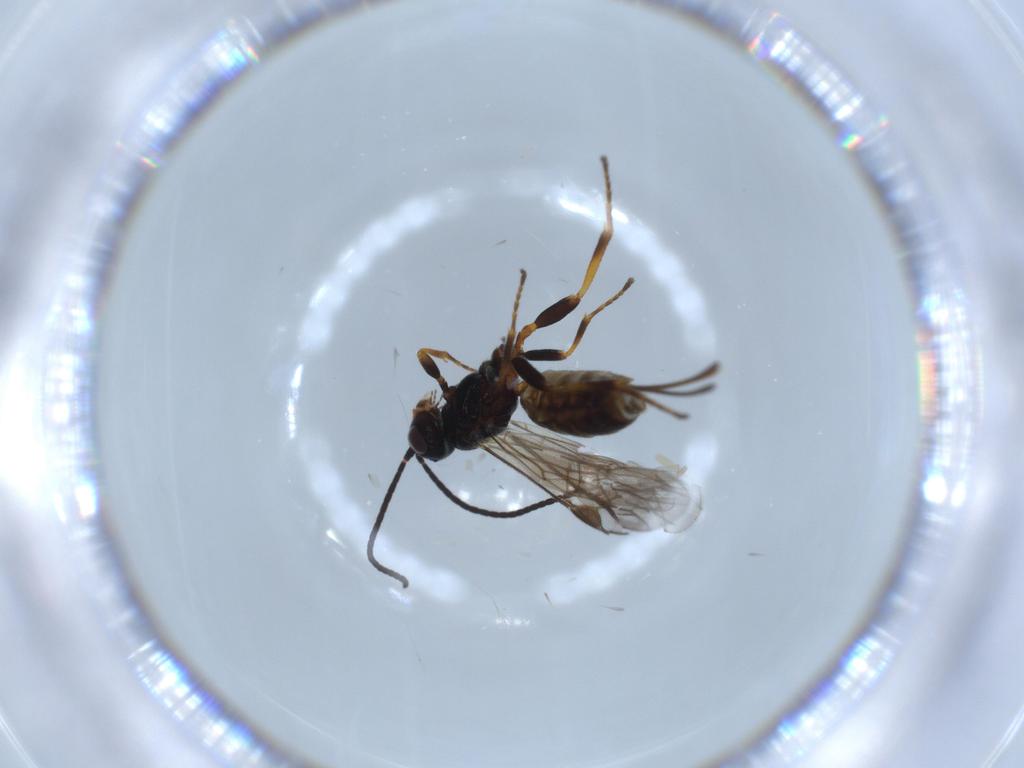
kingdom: Animalia
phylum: Arthropoda
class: Insecta
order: Hymenoptera
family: Braconidae
